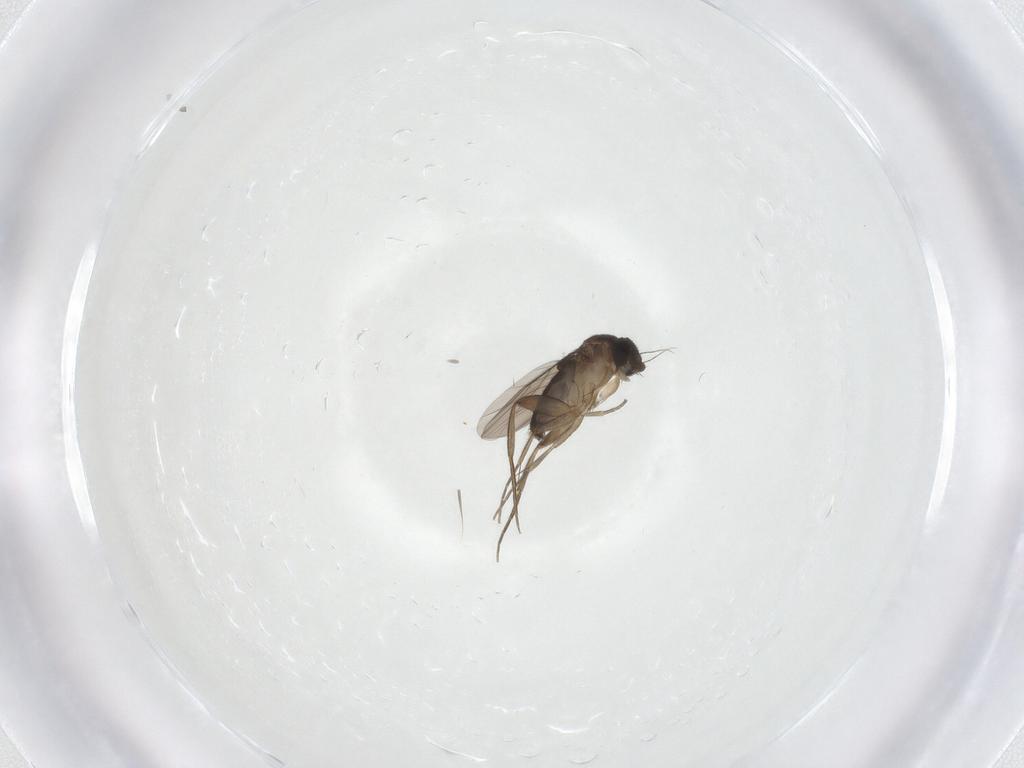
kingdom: Animalia
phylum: Arthropoda
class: Insecta
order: Diptera
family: Phoridae
